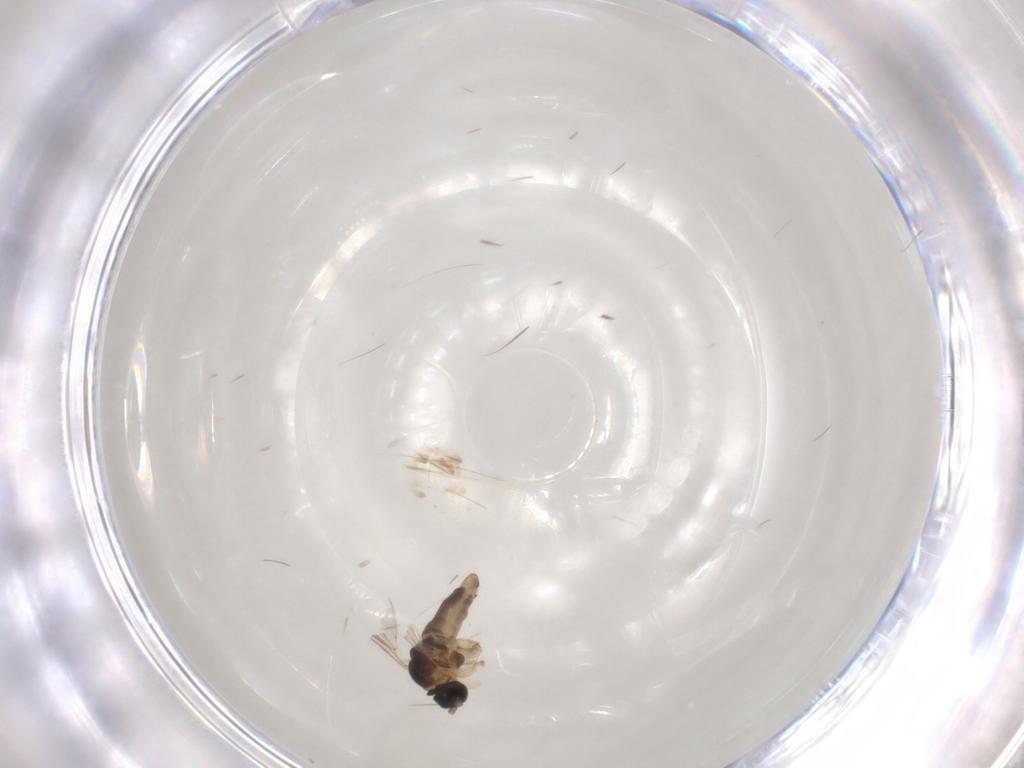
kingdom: Animalia
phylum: Arthropoda
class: Insecta
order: Diptera
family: Sciaridae
